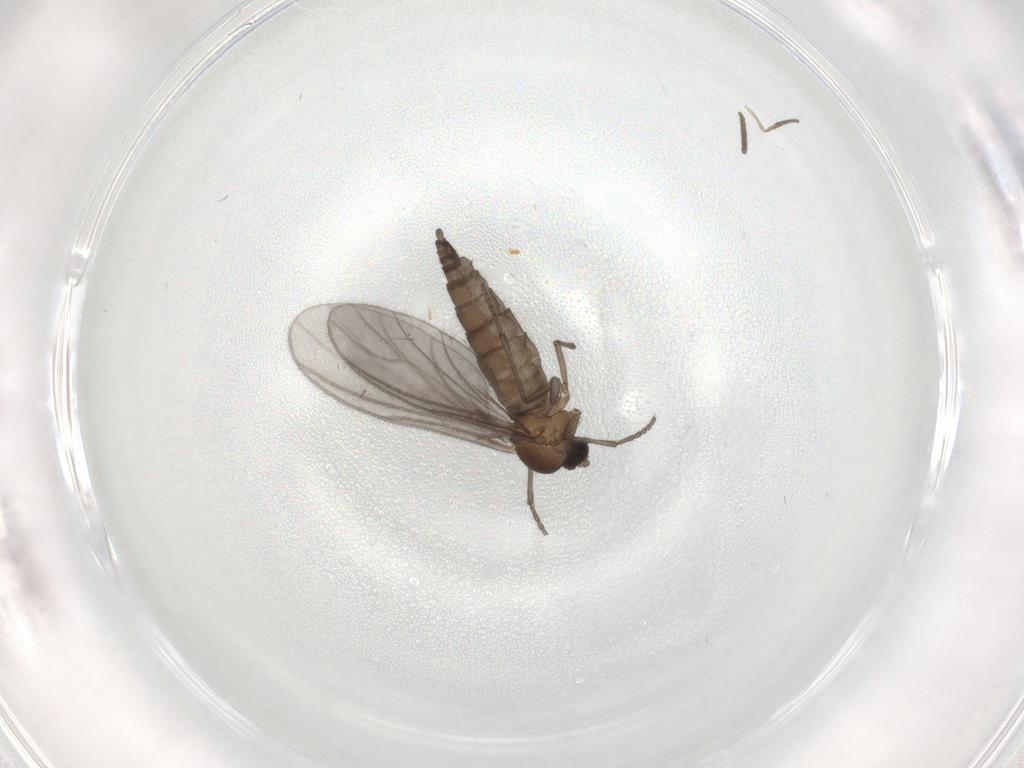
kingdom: Animalia
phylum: Arthropoda
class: Insecta
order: Diptera
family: Sciaridae
